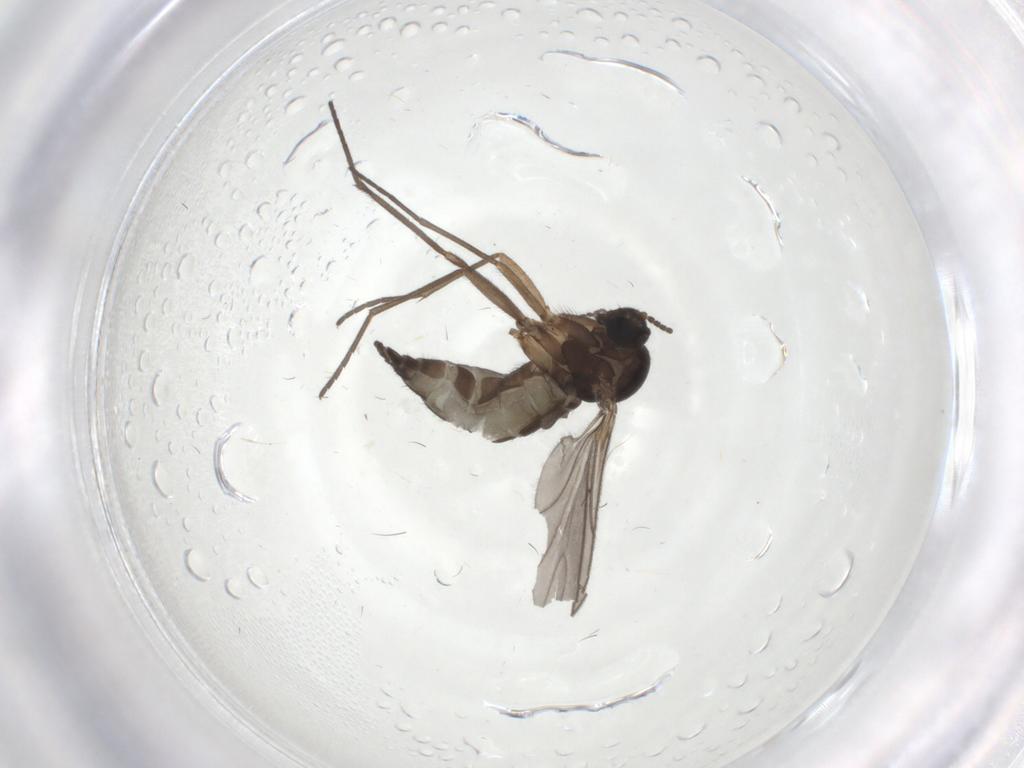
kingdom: Animalia
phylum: Arthropoda
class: Insecta
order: Diptera
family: Sciaridae
